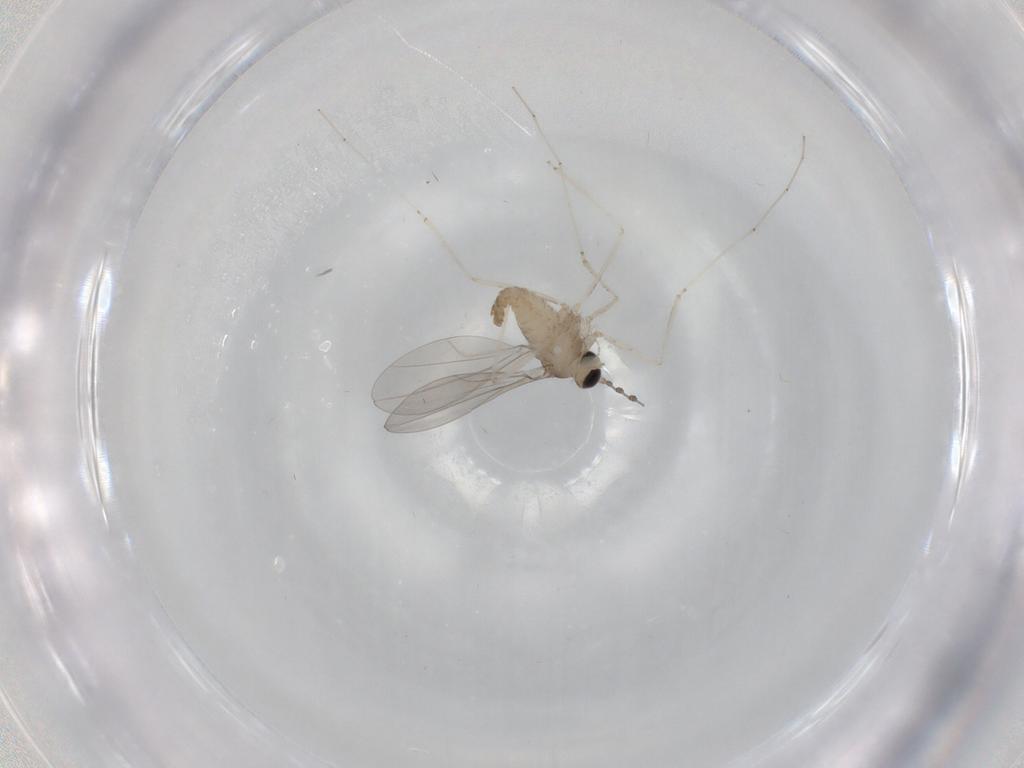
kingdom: Animalia
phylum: Arthropoda
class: Insecta
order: Diptera
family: Cecidomyiidae
